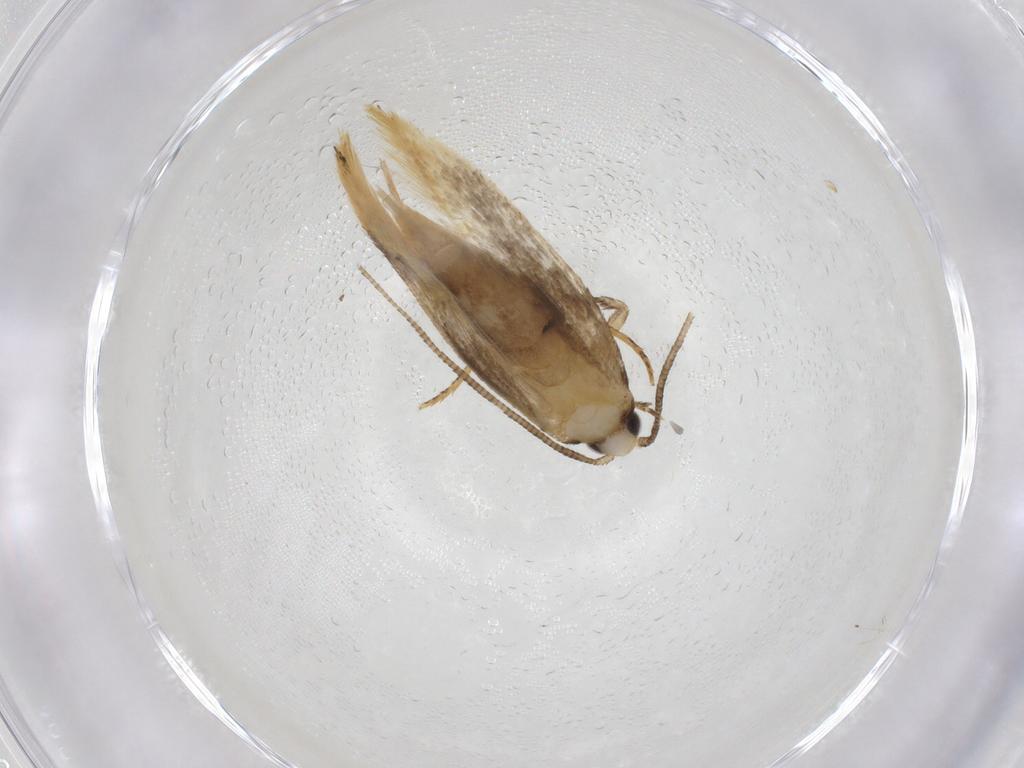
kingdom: Animalia
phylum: Arthropoda
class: Insecta
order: Lepidoptera
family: Tineidae
